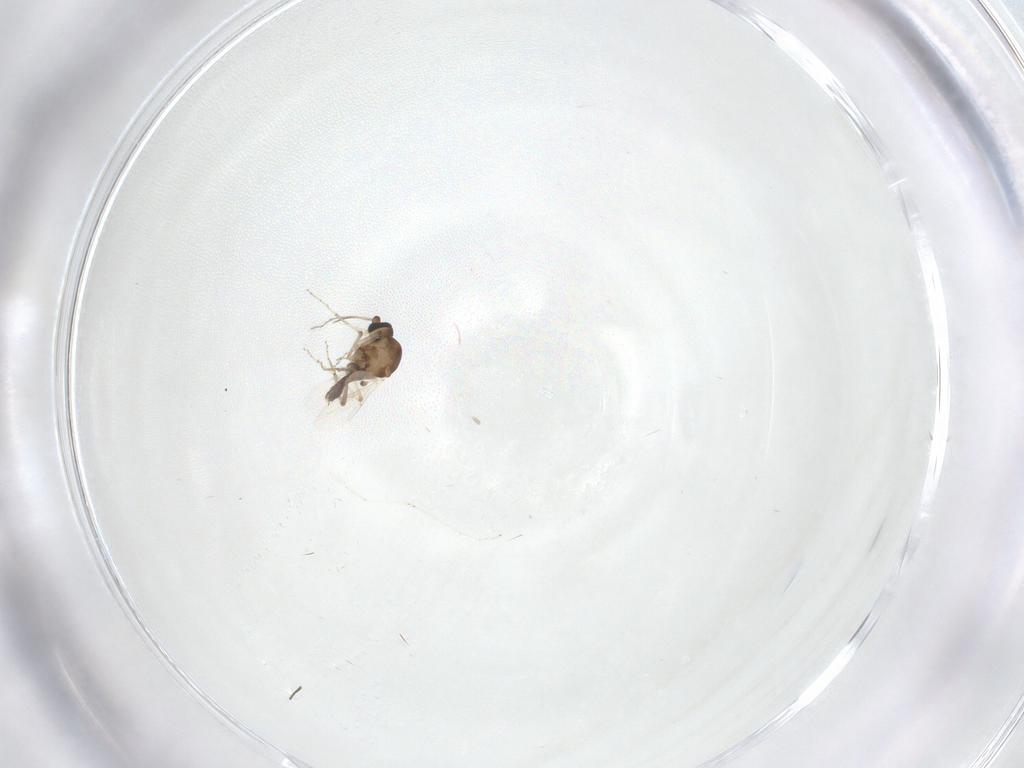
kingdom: Animalia
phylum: Arthropoda
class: Insecta
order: Diptera
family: Ceratopogonidae
